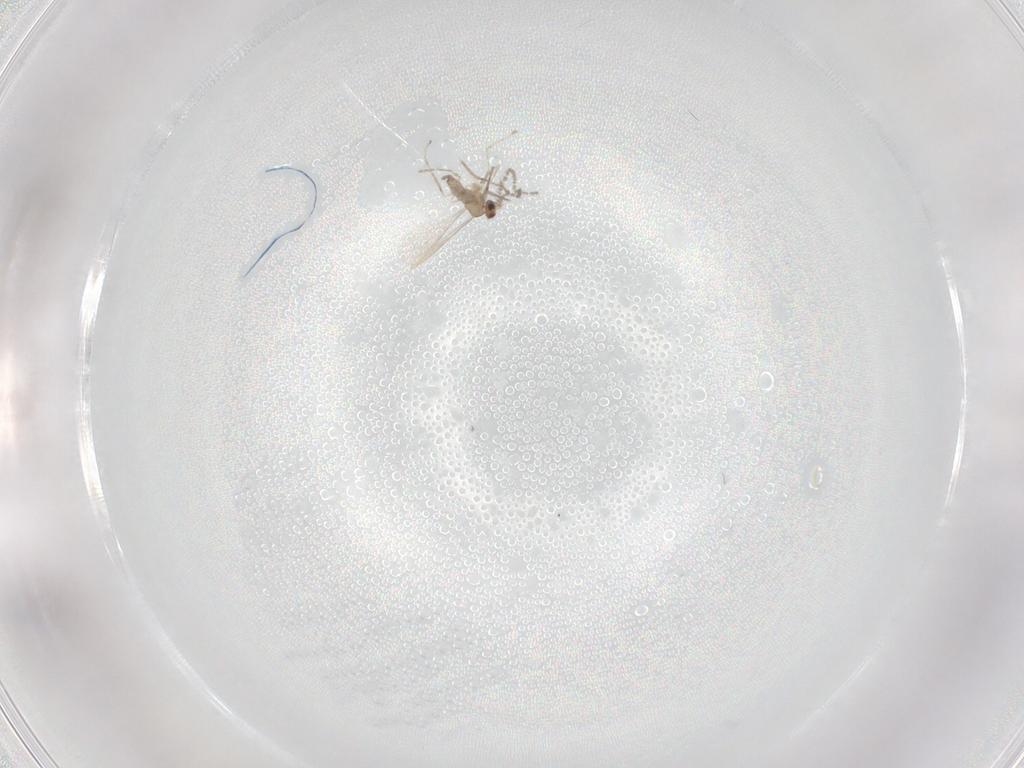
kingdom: Animalia
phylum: Arthropoda
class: Insecta
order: Diptera
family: Cecidomyiidae
